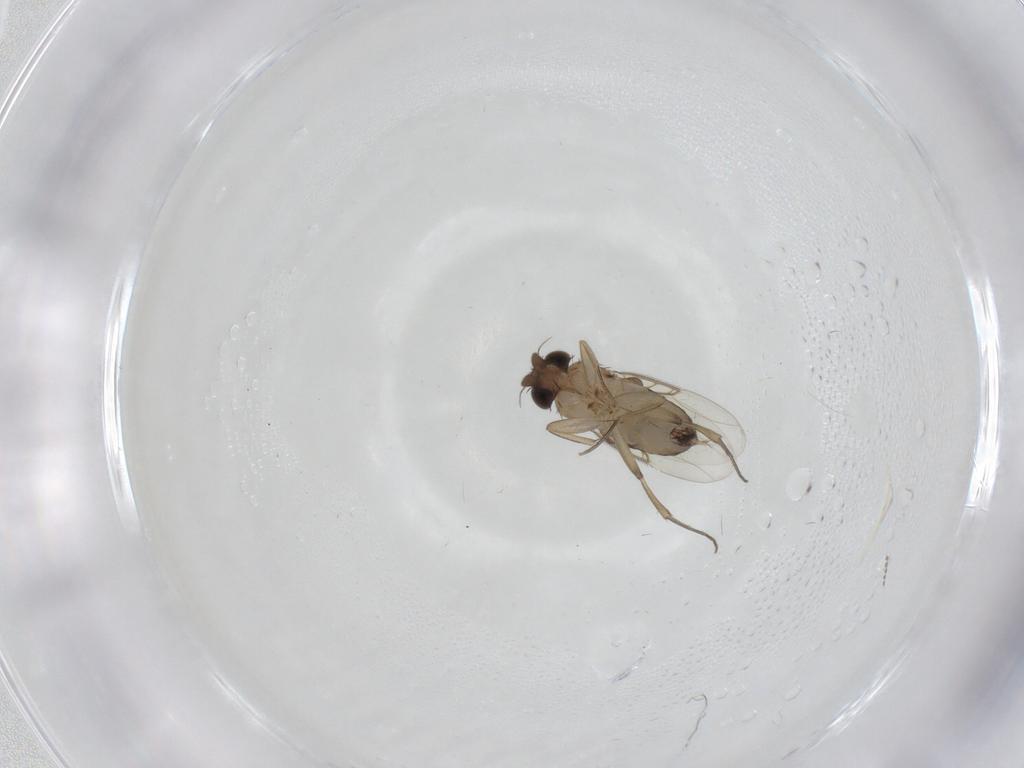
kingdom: Animalia
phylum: Arthropoda
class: Insecta
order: Diptera
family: Phoridae
